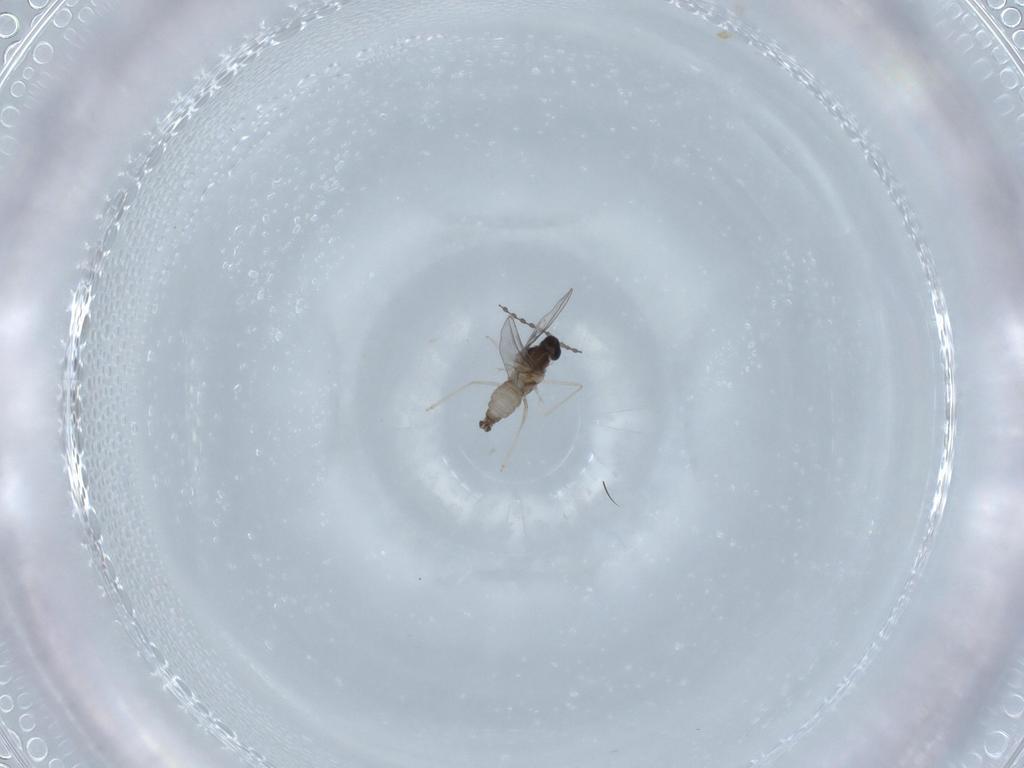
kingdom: Animalia
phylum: Arthropoda
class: Insecta
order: Diptera
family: Cecidomyiidae
